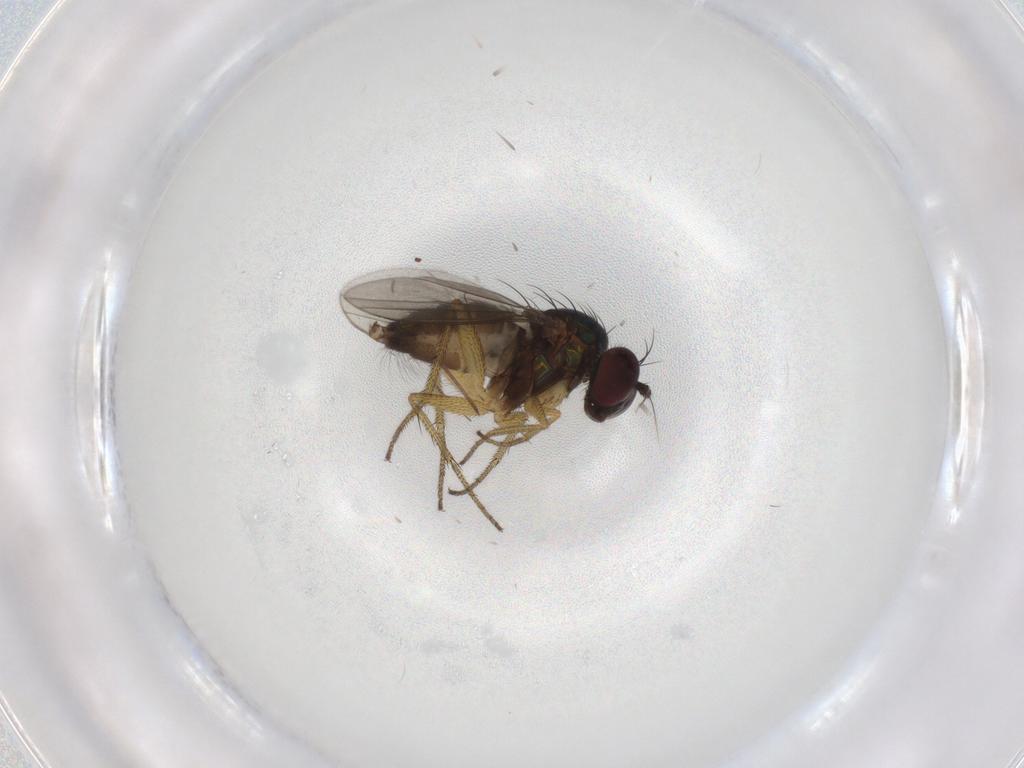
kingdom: Animalia
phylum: Arthropoda
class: Insecta
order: Diptera
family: Chironomidae
